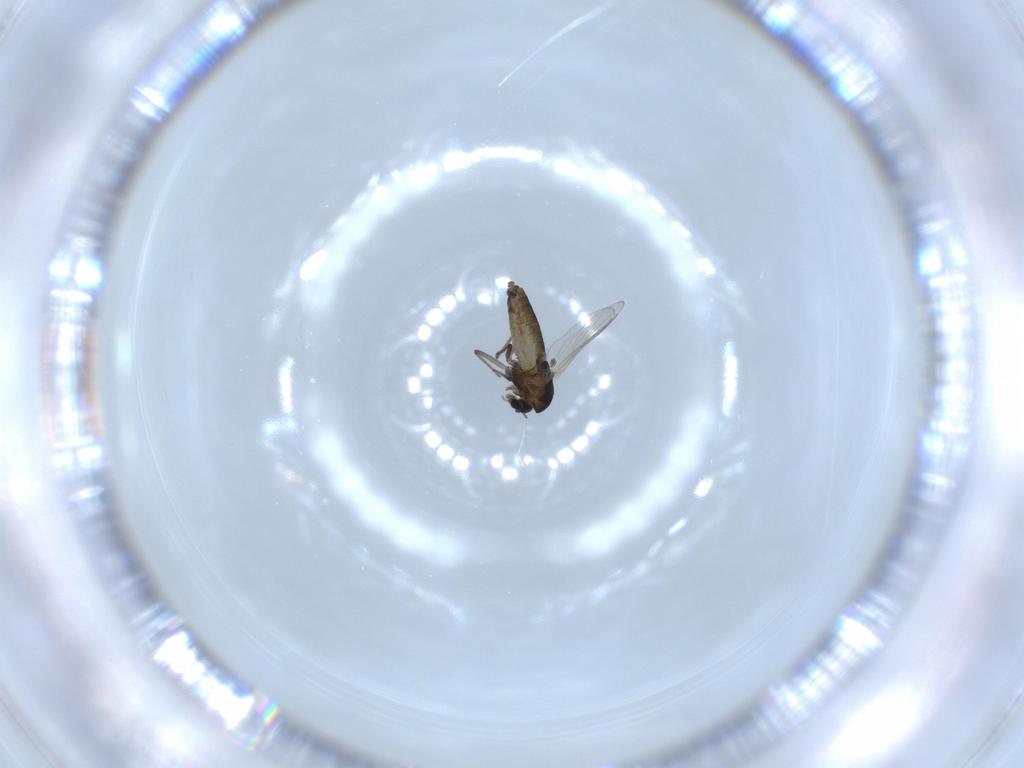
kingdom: Animalia
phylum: Arthropoda
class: Insecta
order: Diptera
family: Chironomidae
